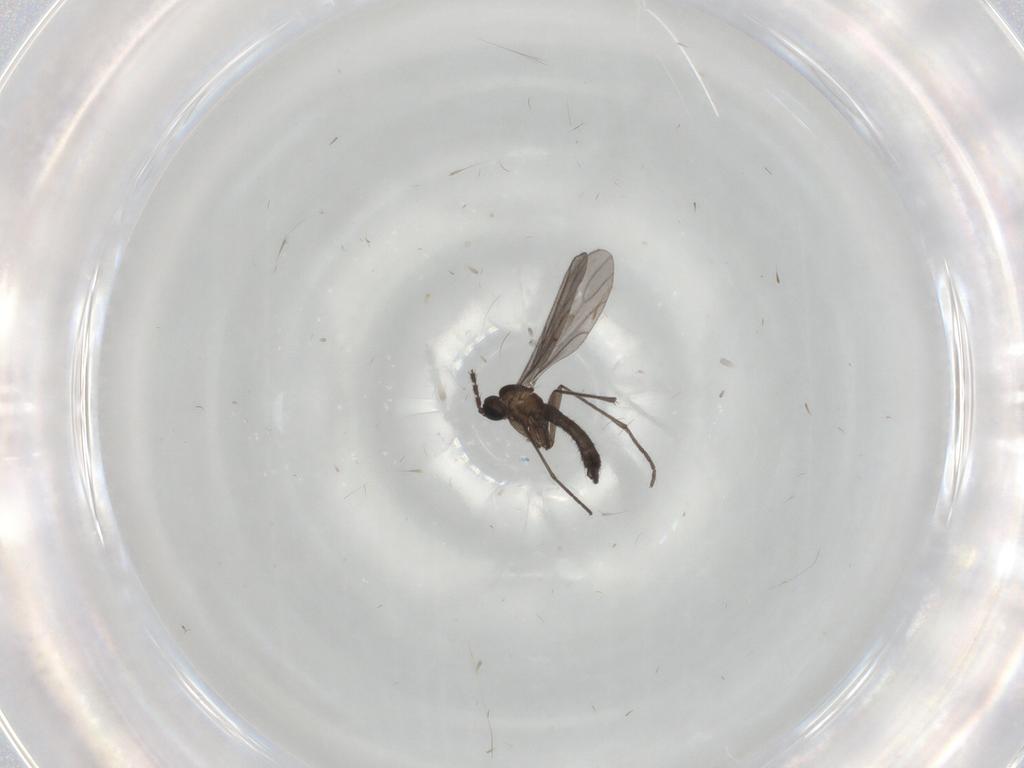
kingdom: Animalia
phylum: Arthropoda
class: Insecta
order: Diptera
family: Sciaridae
